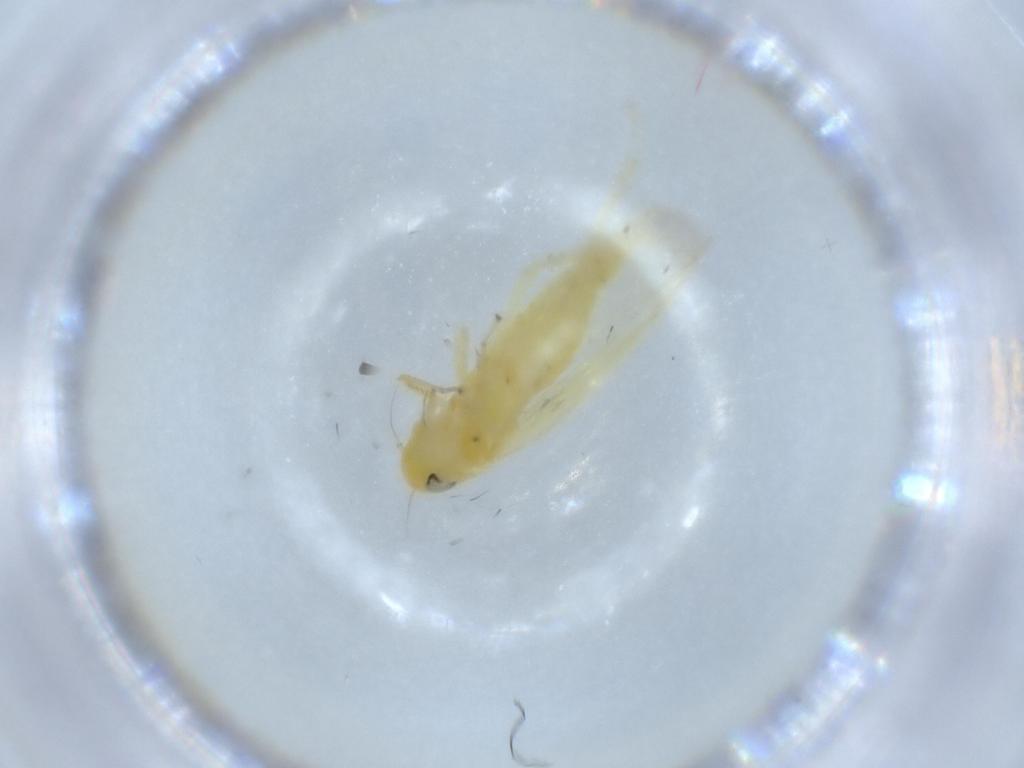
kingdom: Animalia
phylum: Arthropoda
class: Insecta
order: Hemiptera
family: Cicadellidae
